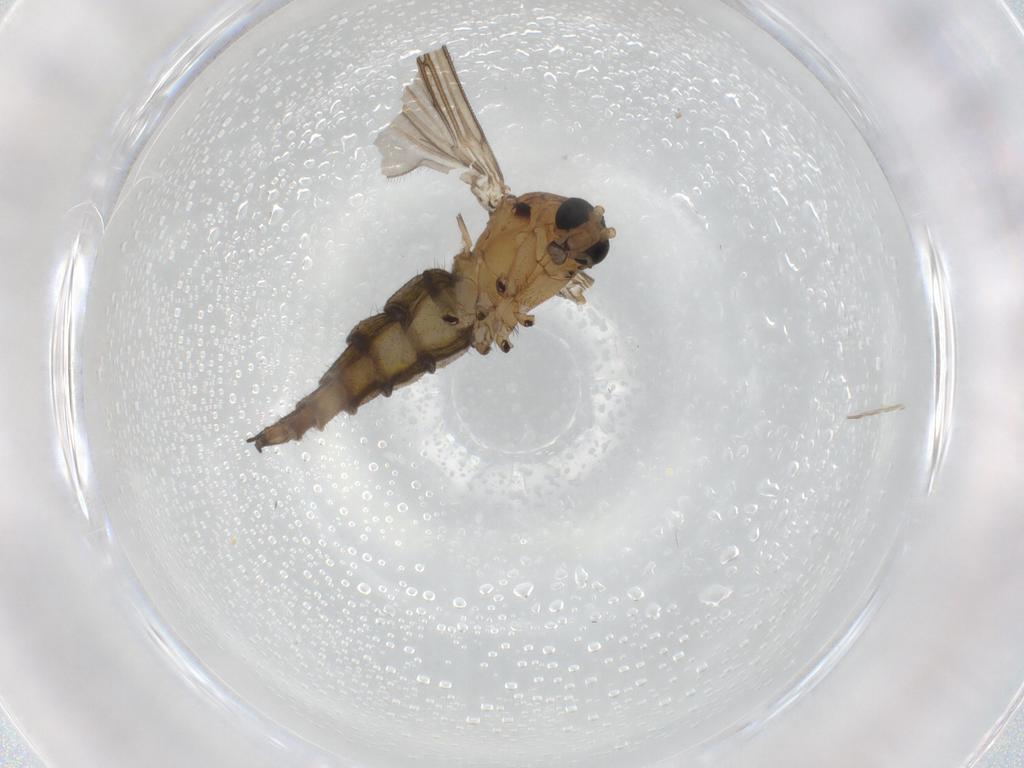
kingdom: Animalia
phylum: Arthropoda
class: Insecta
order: Diptera
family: Sciaridae
